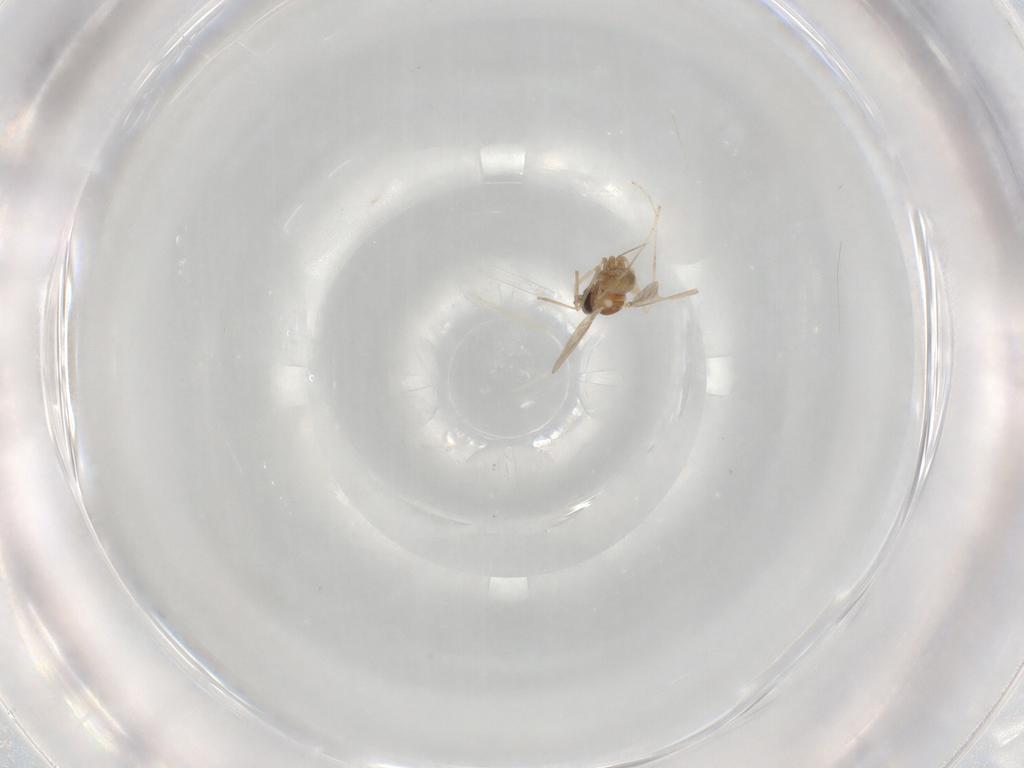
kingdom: Animalia
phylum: Arthropoda
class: Insecta
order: Diptera
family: Cecidomyiidae
